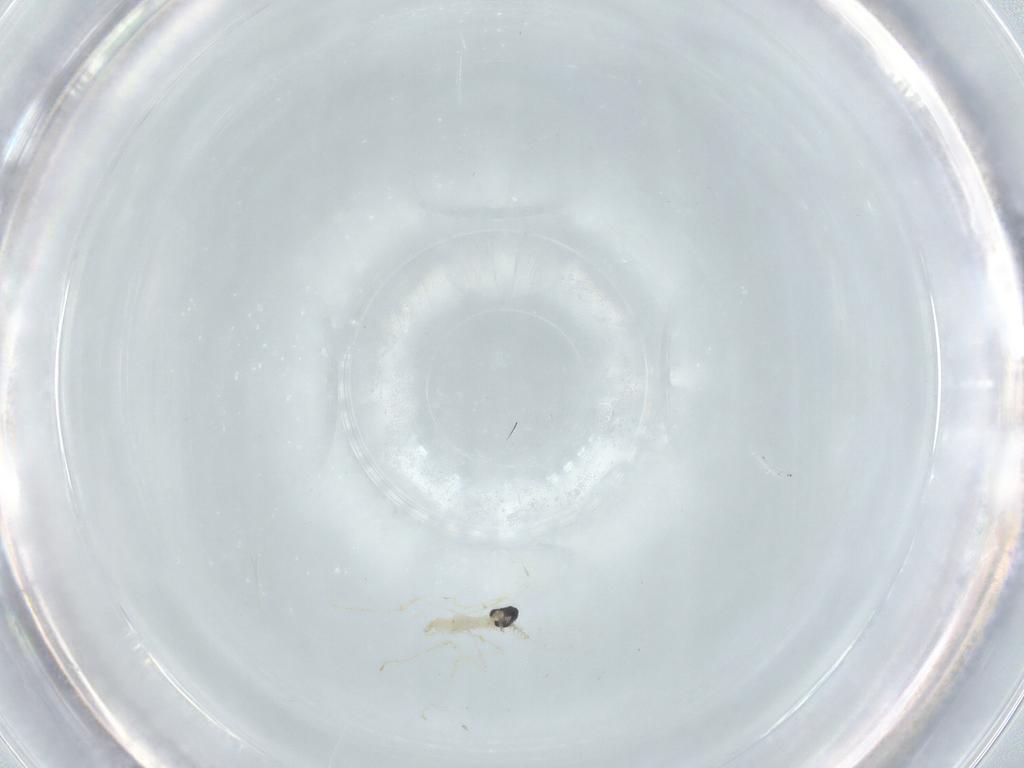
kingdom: Animalia
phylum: Arthropoda
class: Insecta
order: Diptera
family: Cecidomyiidae
